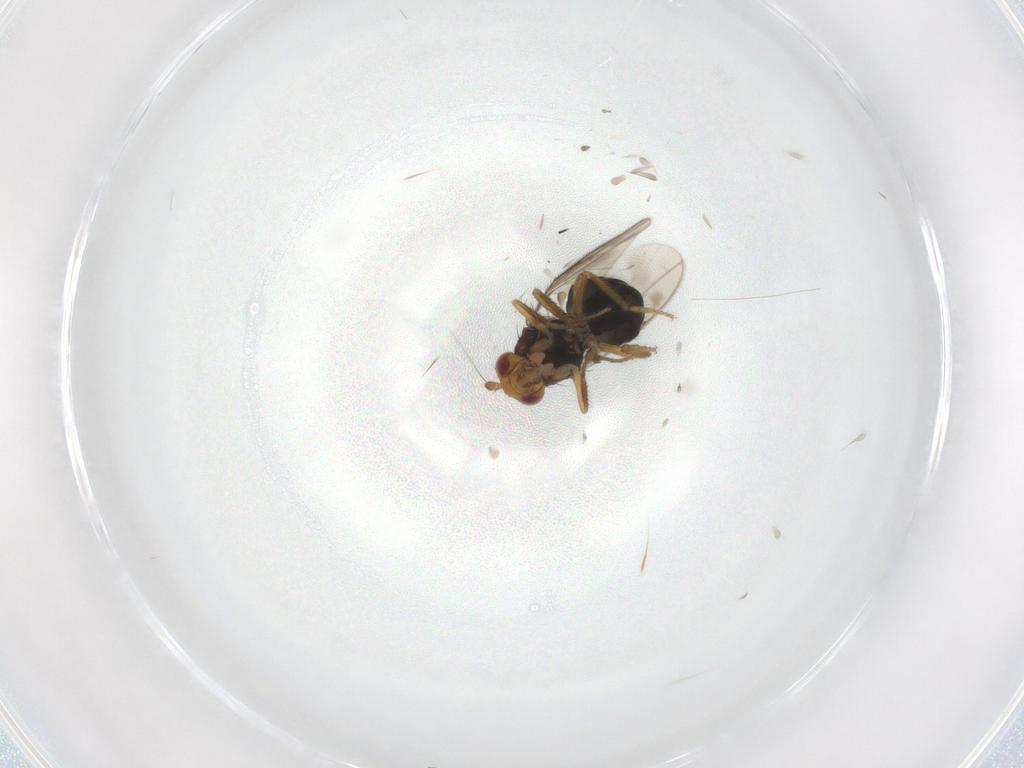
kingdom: Animalia
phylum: Arthropoda
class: Insecta
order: Diptera
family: Sphaeroceridae
